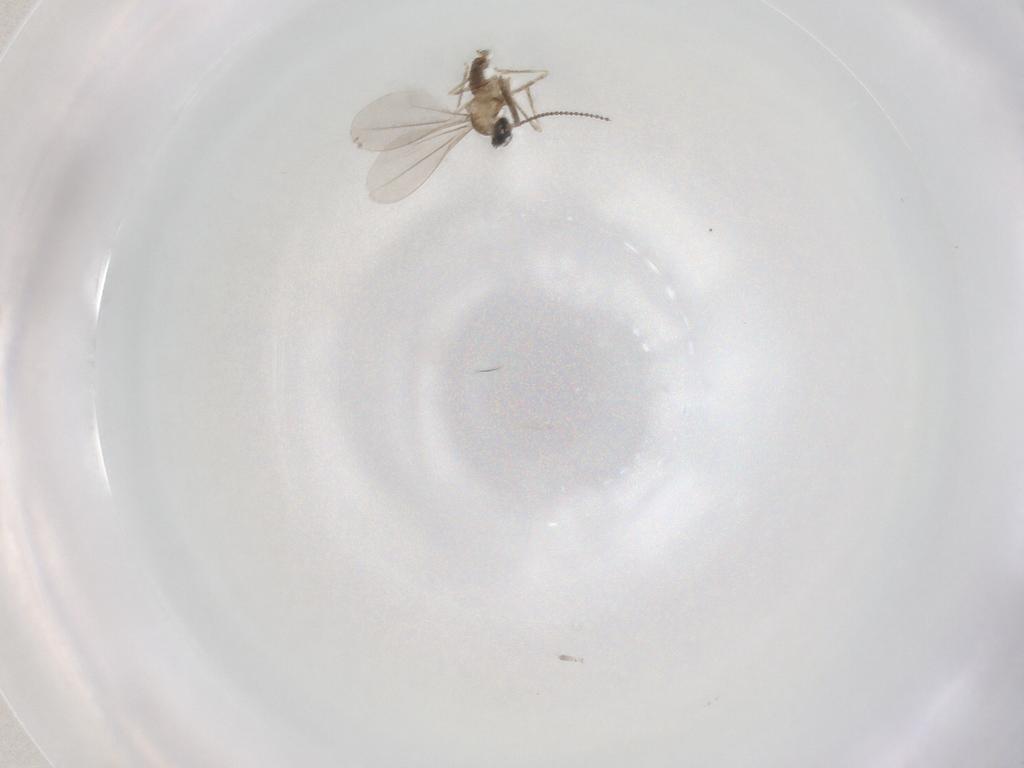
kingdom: Animalia
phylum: Arthropoda
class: Insecta
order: Diptera
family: Cecidomyiidae
